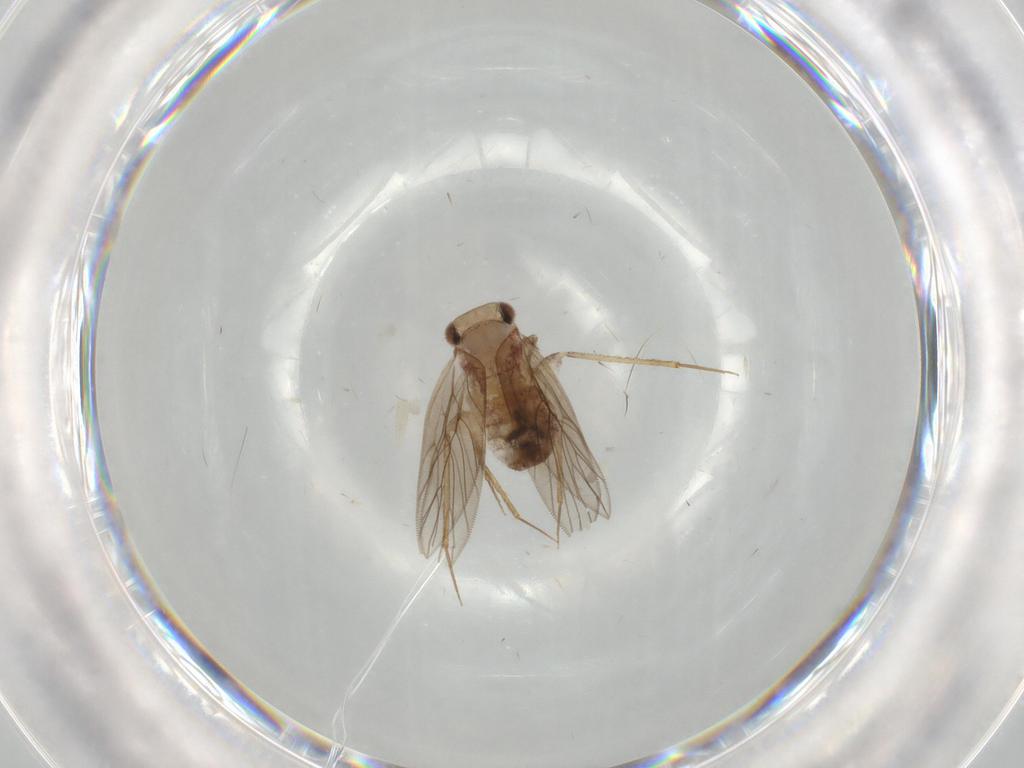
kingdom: Animalia
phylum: Arthropoda
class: Insecta
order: Psocodea
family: Lepidopsocidae
